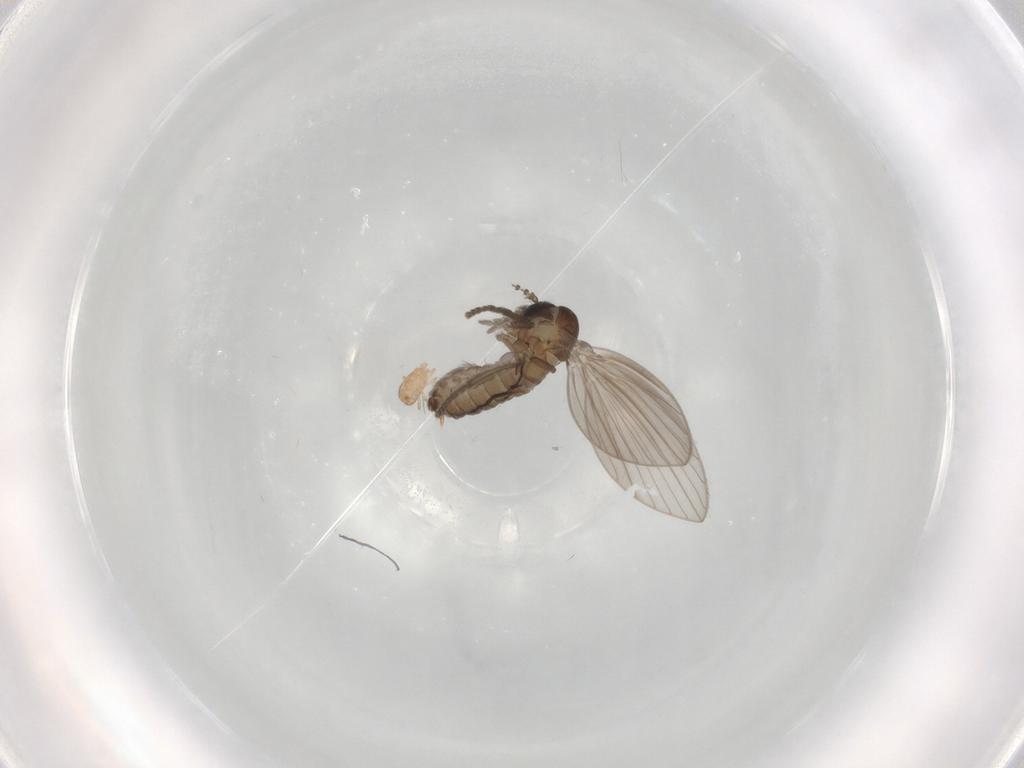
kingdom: Animalia
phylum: Arthropoda
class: Insecta
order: Diptera
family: Psychodidae
